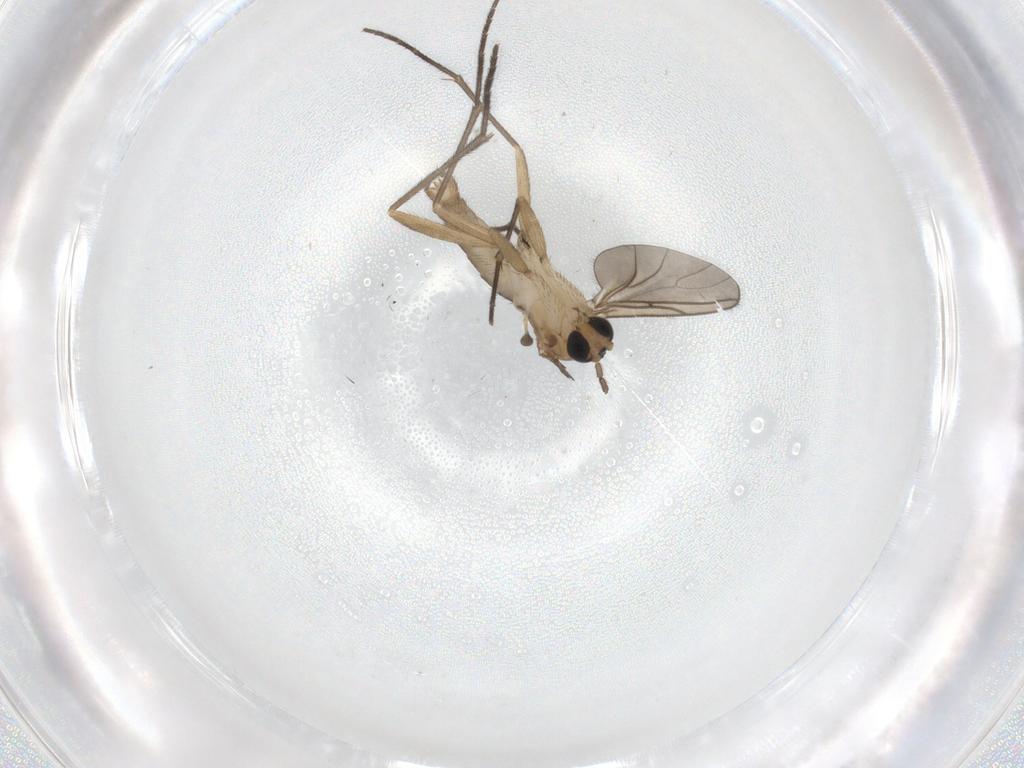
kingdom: Animalia
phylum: Arthropoda
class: Insecta
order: Diptera
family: Sciaridae
